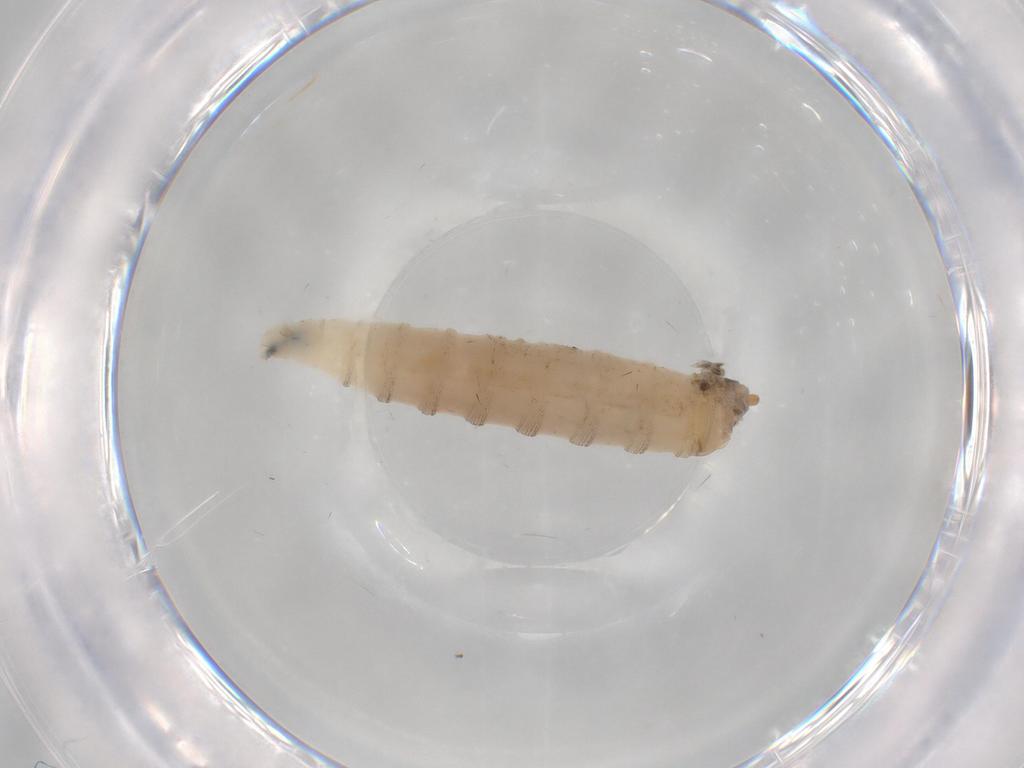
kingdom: Animalia
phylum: Arthropoda
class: Insecta
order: Diptera
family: Drosophilidae
